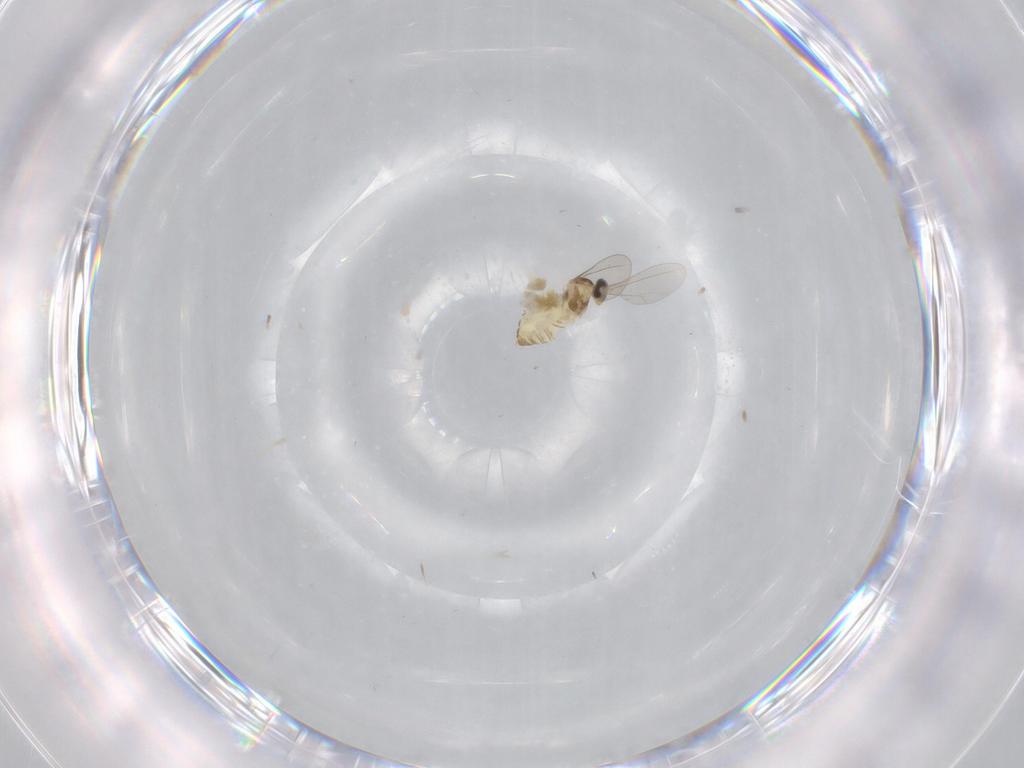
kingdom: Animalia
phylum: Arthropoda
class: Insecta
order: Diptera
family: Cecidomyiidae
